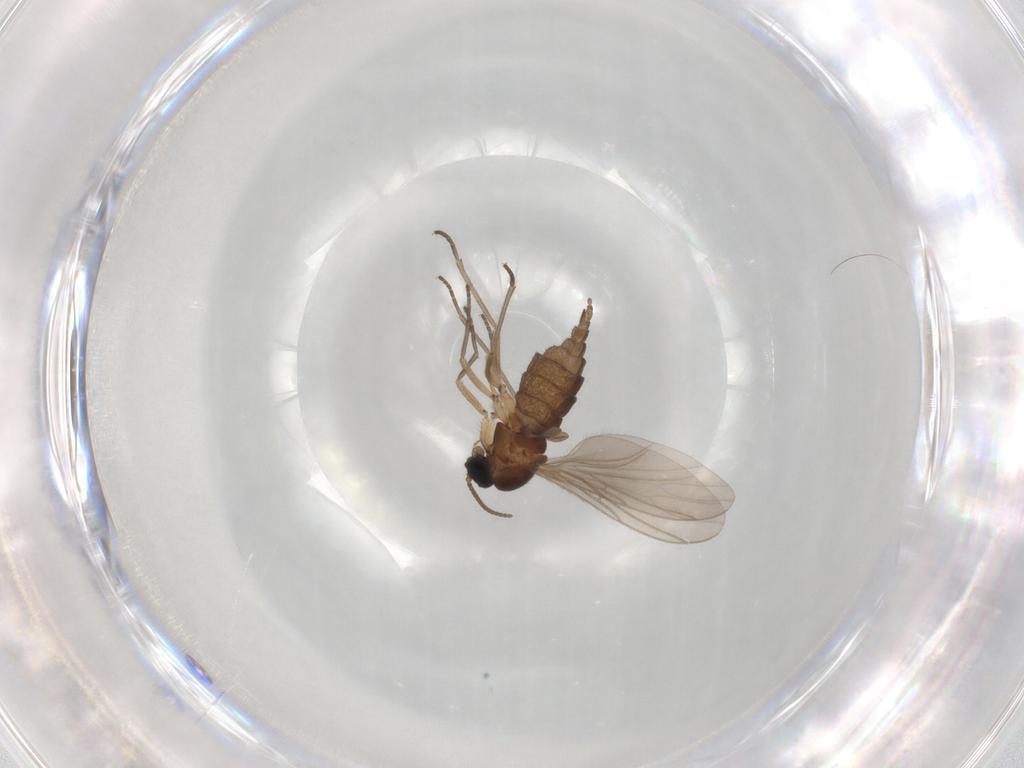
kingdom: Animalia
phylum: Arthropoda
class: Insecta
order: Diptera
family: Sciaridae
